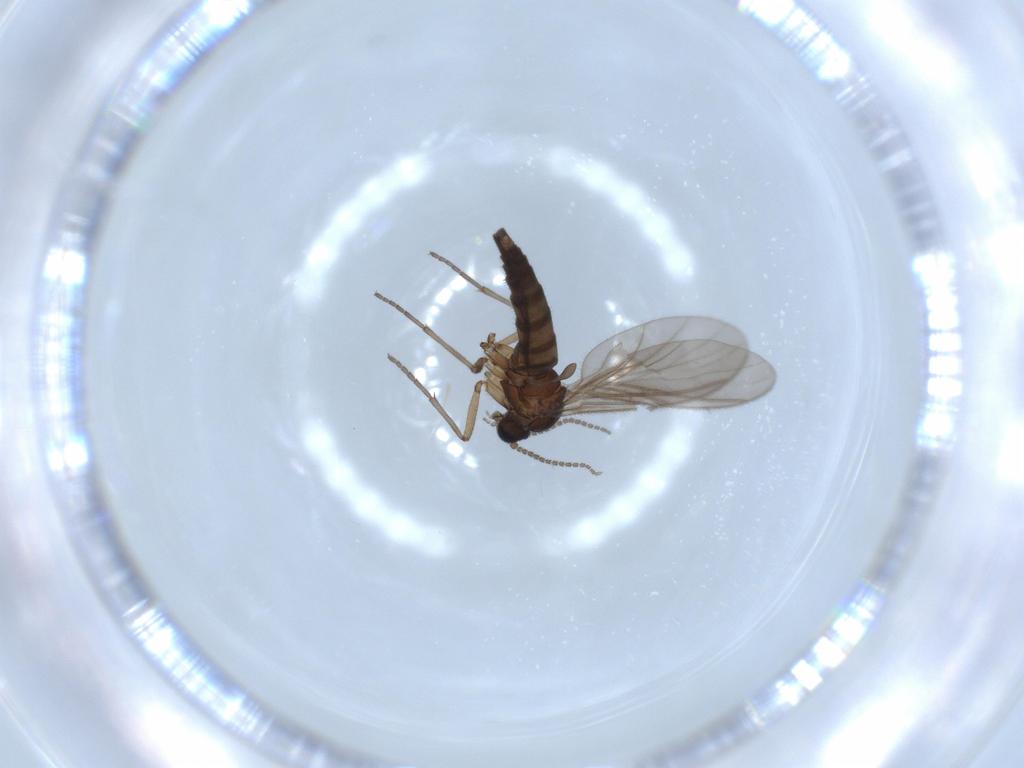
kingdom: Animalia
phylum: Arthropoda
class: Insecta
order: Diptera
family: Sciaridae
